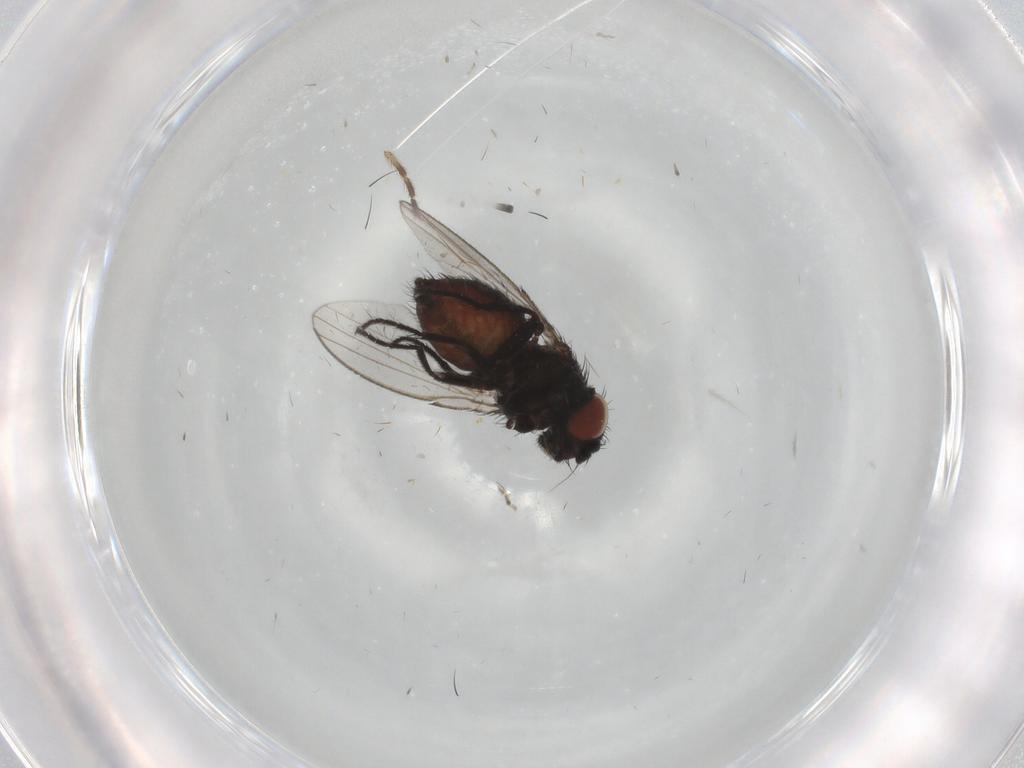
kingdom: Animalia
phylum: Arthropoda
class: Insecta
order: Diptera
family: Milichiidae
